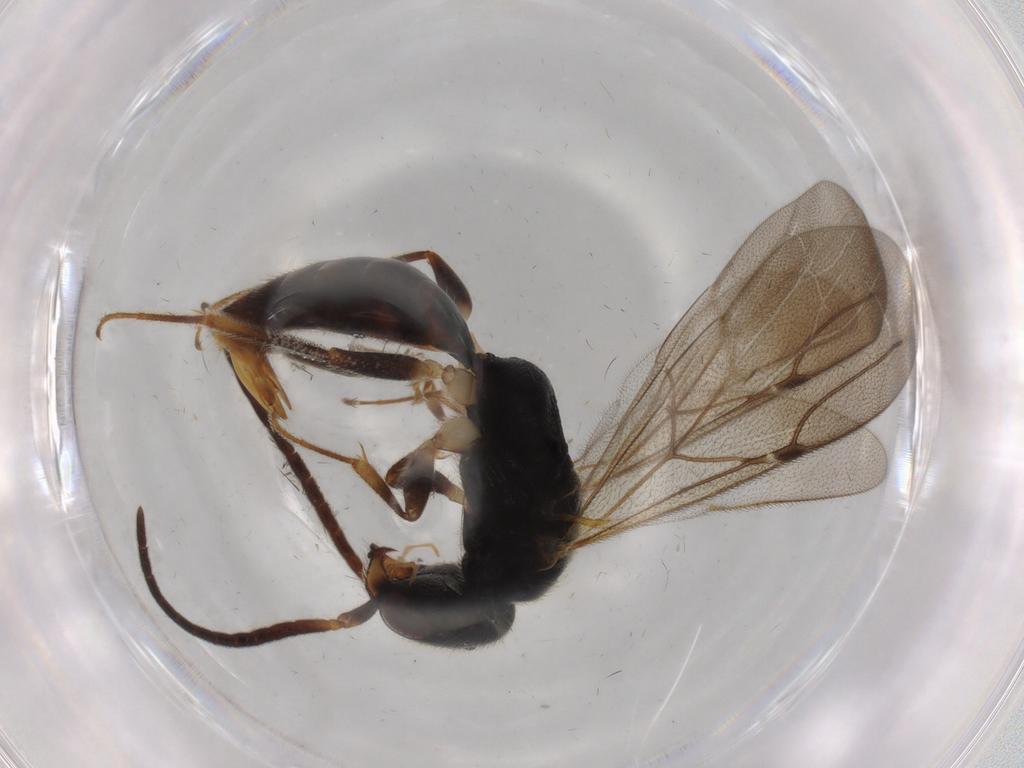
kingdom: Animalia
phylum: Arthropoda
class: Insecta
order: Hymenoptera
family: Bethylidae
